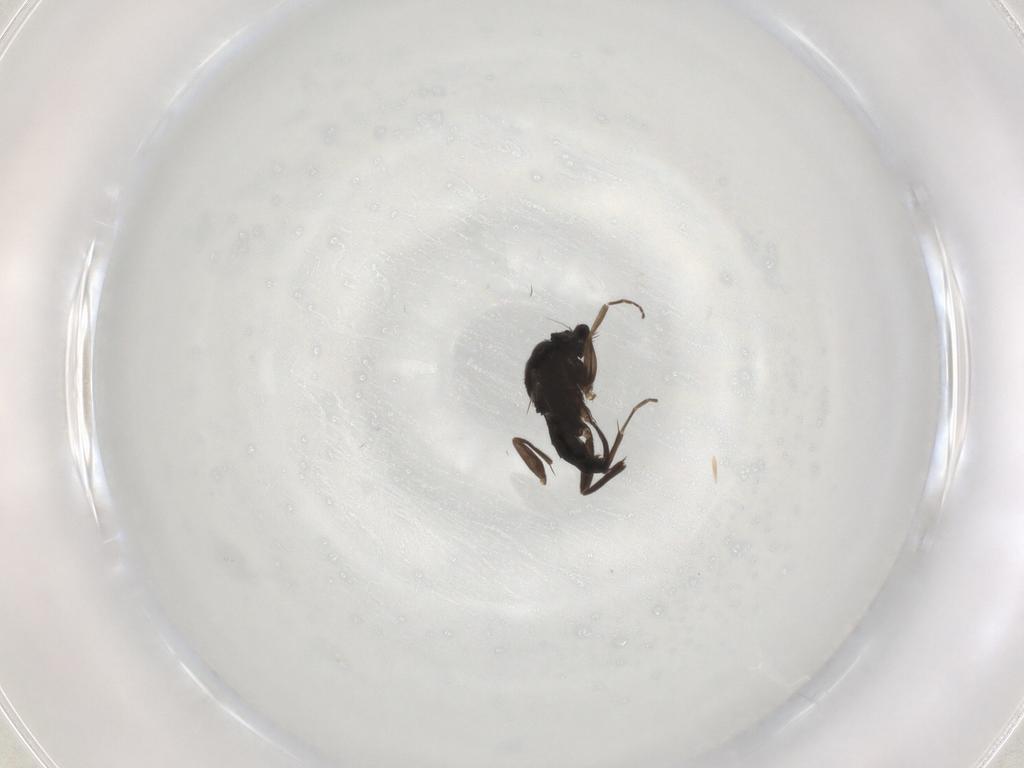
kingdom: Animalia
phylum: Arthropoda
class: Insecta
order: Diptera
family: Phoridae
